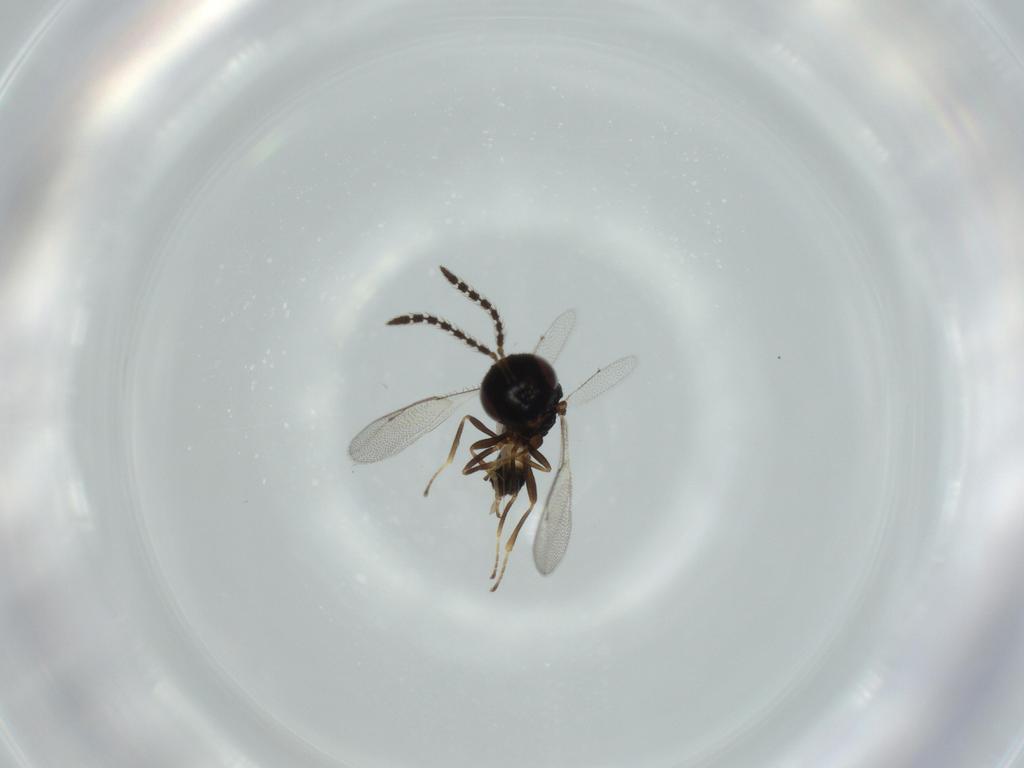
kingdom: Animalia
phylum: Arthropoda
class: Insecta
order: Hymenoptera
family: Pteromalidae
